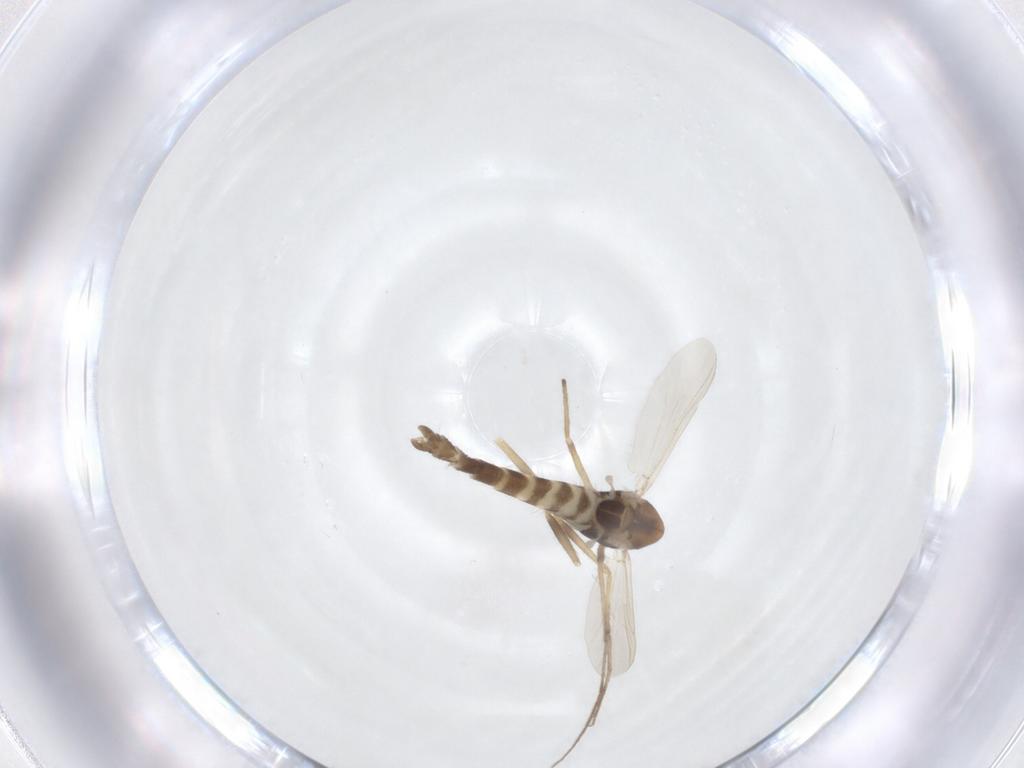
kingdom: Animalia
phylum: Arthropoda
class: Insecta
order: Diptera
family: Chironomidae
